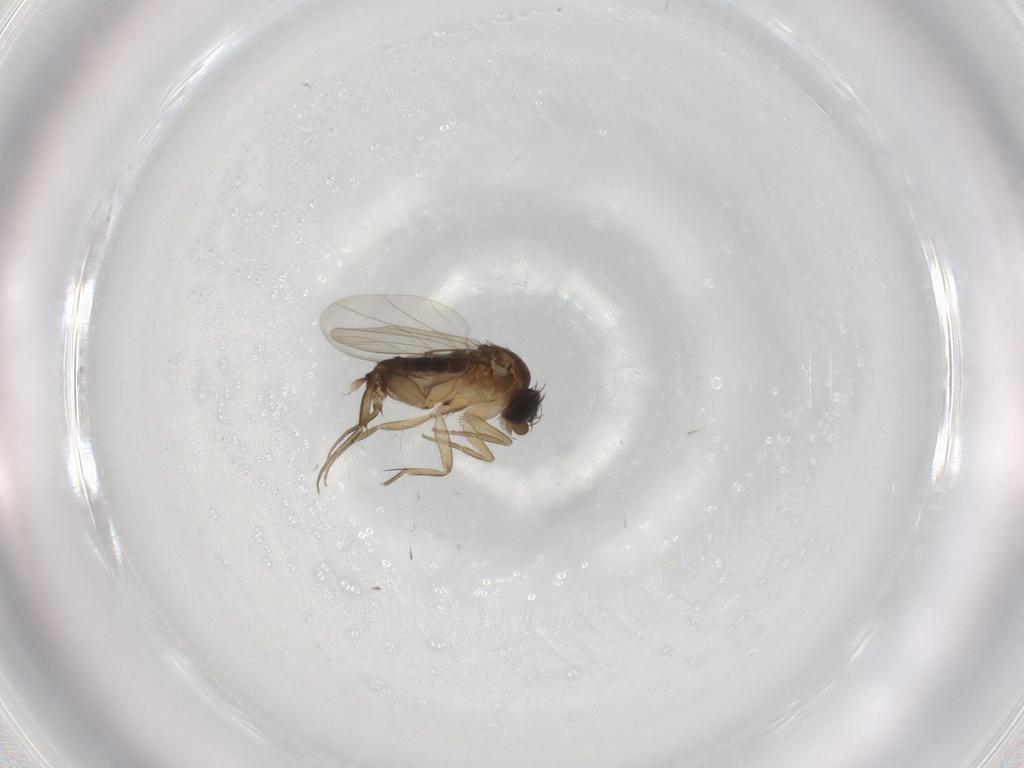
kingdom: Animalia
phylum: Arthropoda
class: Insecta
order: Diptera
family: Phoridae
